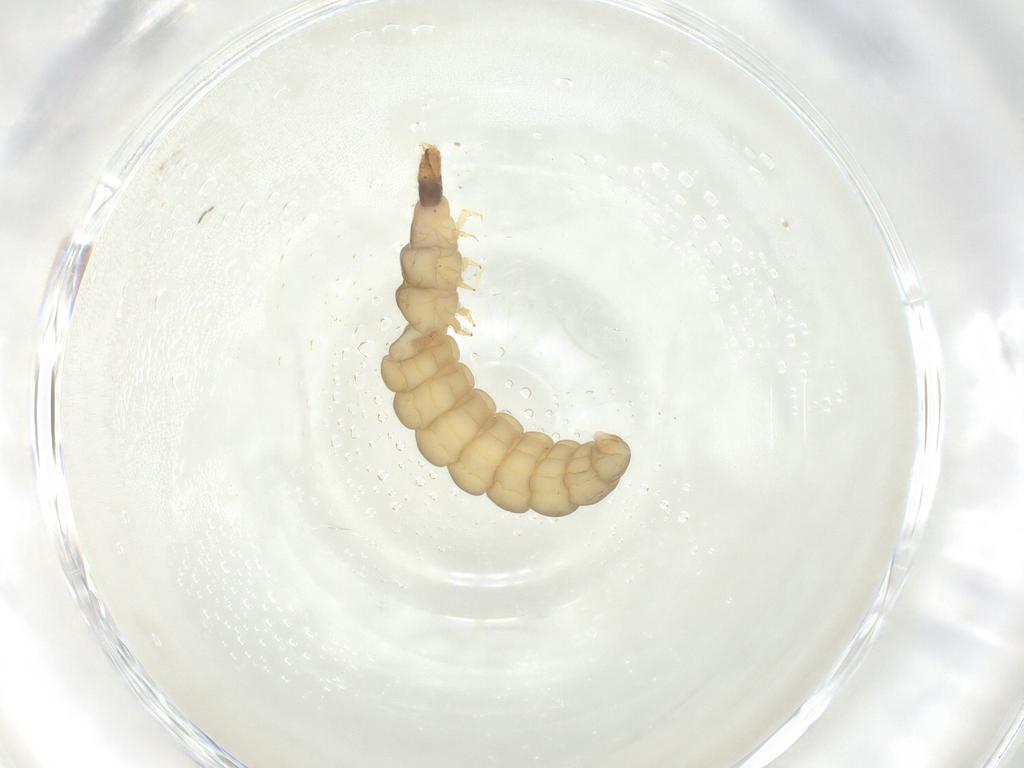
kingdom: Animalia
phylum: Arthropoda
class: Insecta
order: Coleoptera
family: Cantharidae
